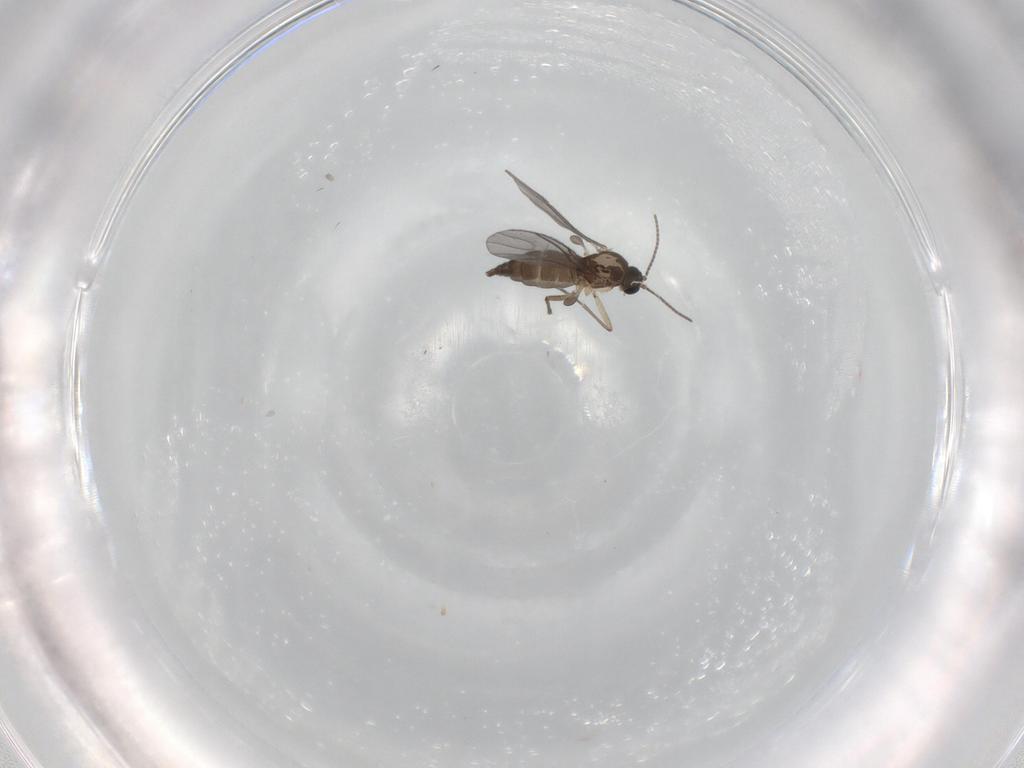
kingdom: Animalia
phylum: Arthropoda
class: Insecta
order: Diptera
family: Sciaridae
